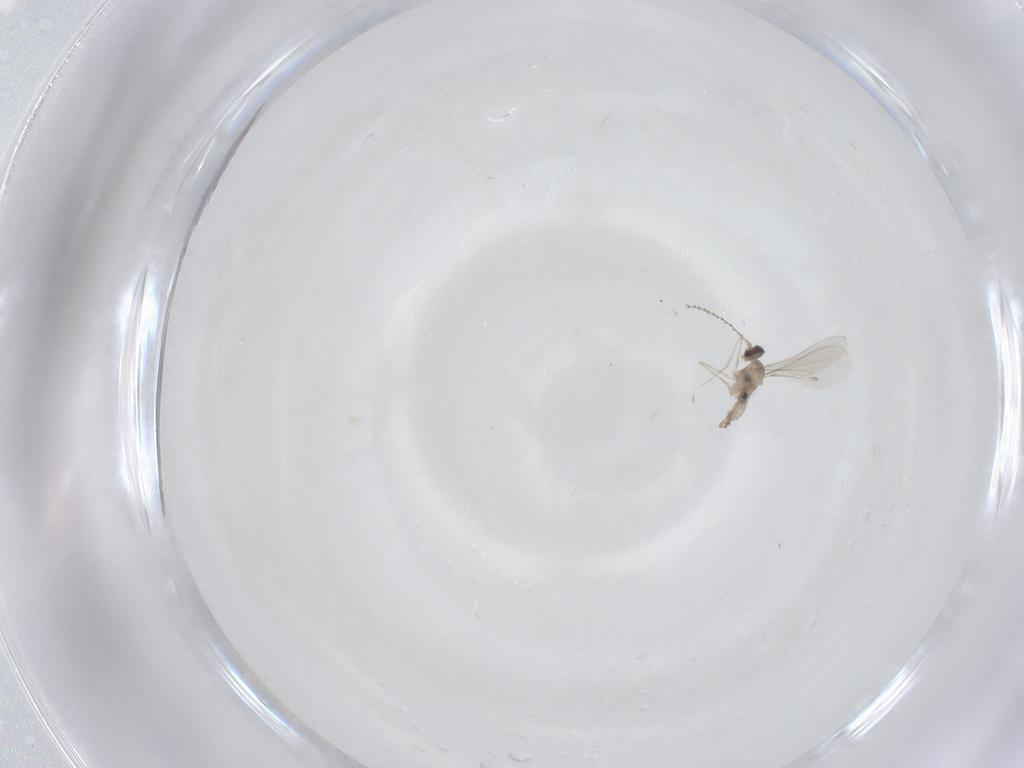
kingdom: Animalia
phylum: Arthropoda
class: Insecta
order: Diptera
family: Cecidomyiidae
